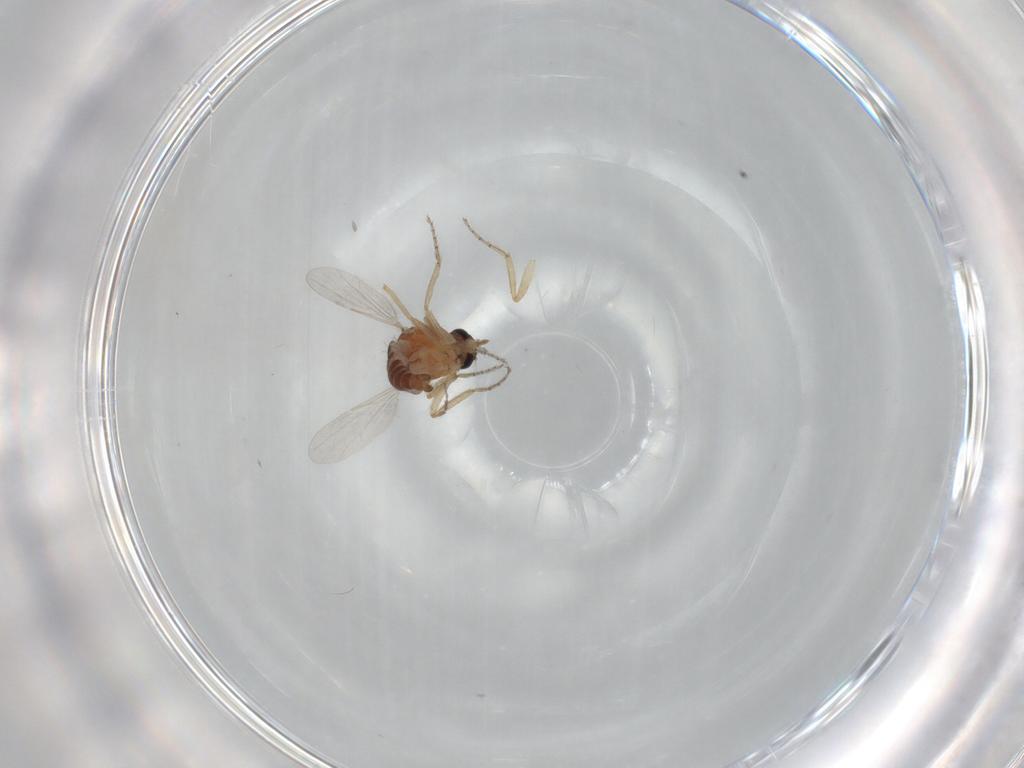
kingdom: Animalia
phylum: Arthropoda
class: Insecta
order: Diptera
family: Ceratopogonidae
